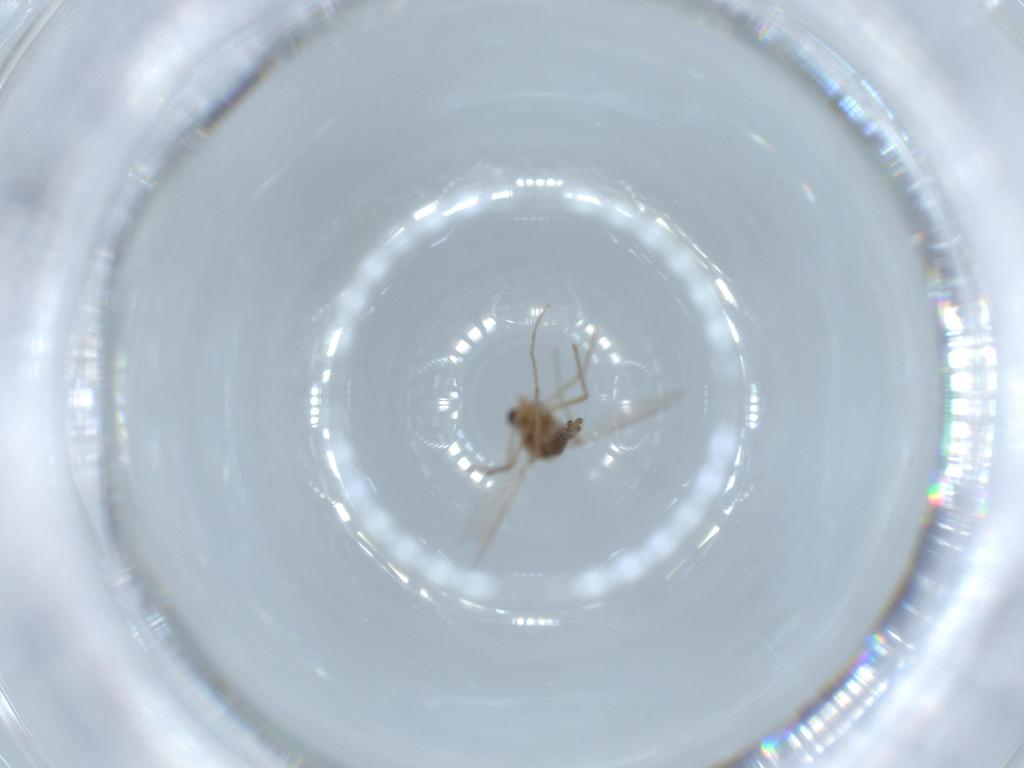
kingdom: Animalia
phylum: Arthropoda
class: Insecta
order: Diptera
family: Chironomidae
